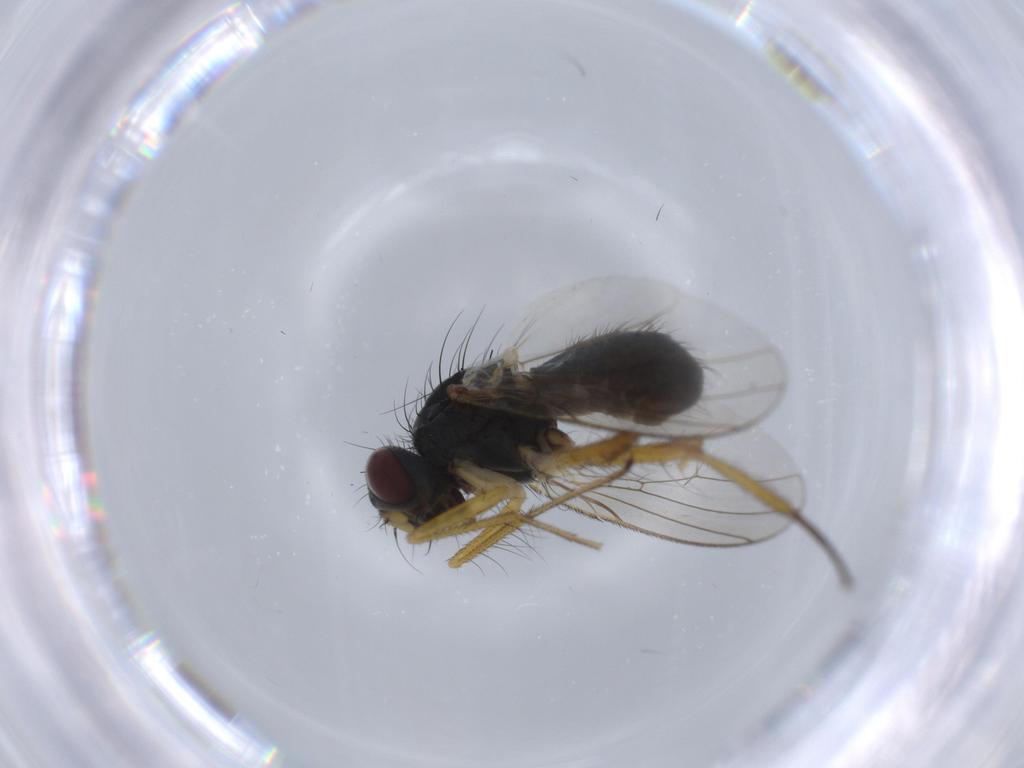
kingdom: Animalia
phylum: Arthropoda
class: Insecta
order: Diptera
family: Muscidae
